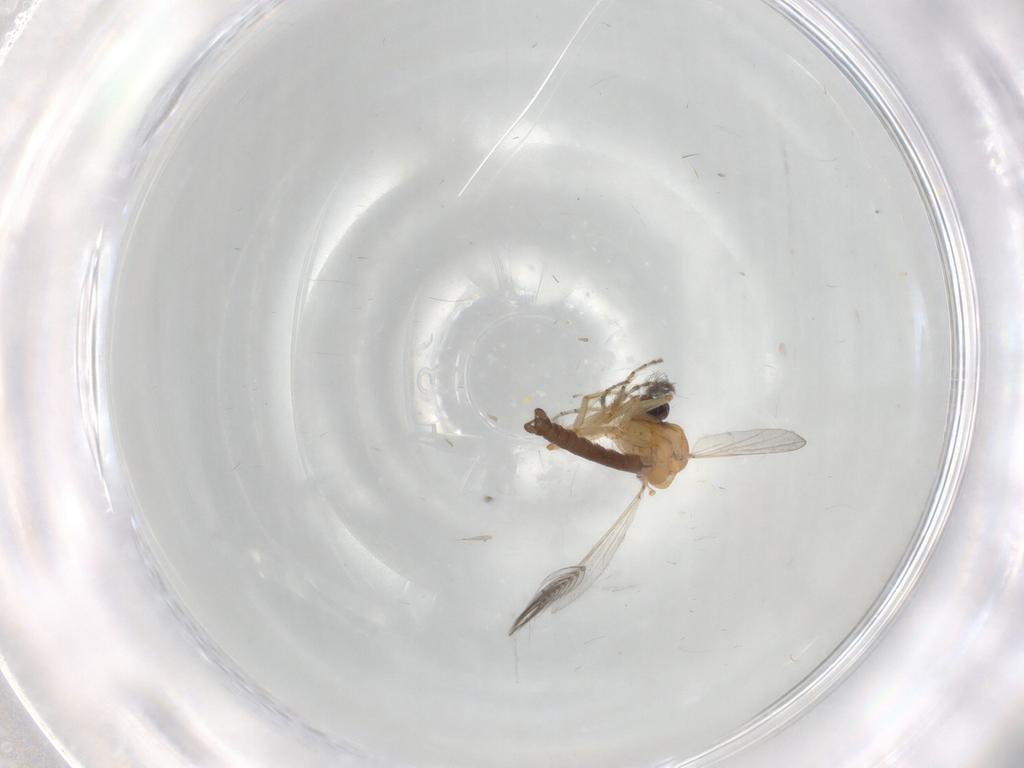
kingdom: Animalia
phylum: Arthropoda
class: Insecta
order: Diptera
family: Ceratopogonidae
